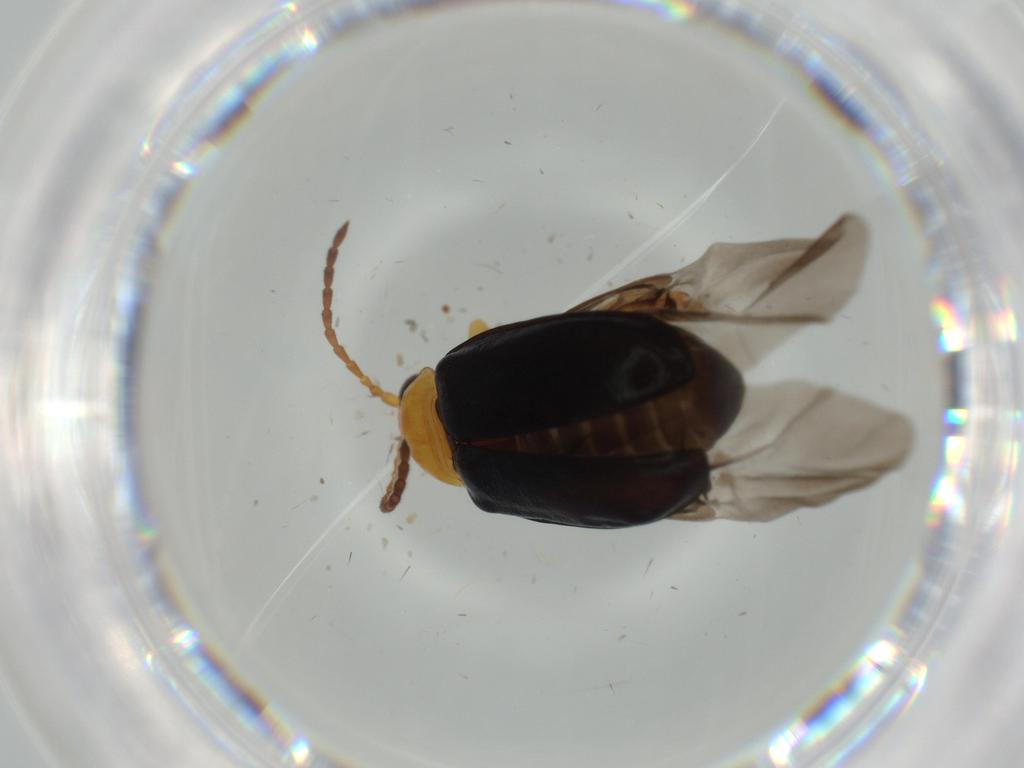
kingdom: Animalia
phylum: Arthropoda
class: Insecta
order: Coleoptera
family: Chrysomelidae
